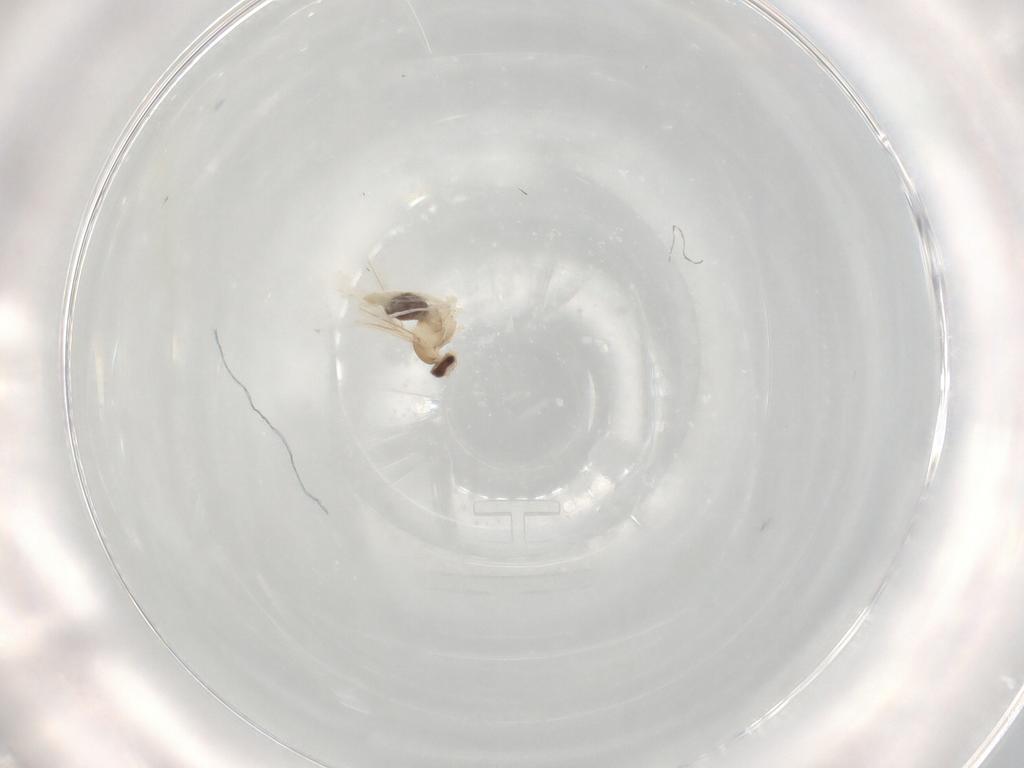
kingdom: Animalia
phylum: Arthropoda
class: Insecta
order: Diptera
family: Cecidomyiidae
